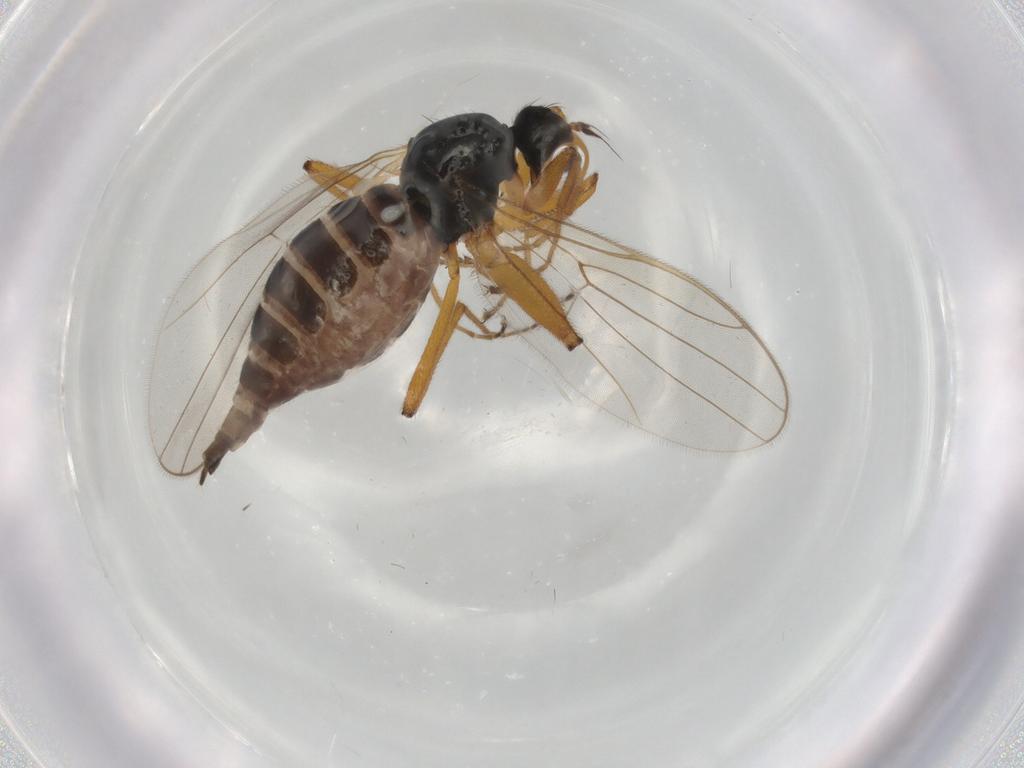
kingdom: Animalia
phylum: Arthropoda
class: Insecta
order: Diptera
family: Hybotidae
